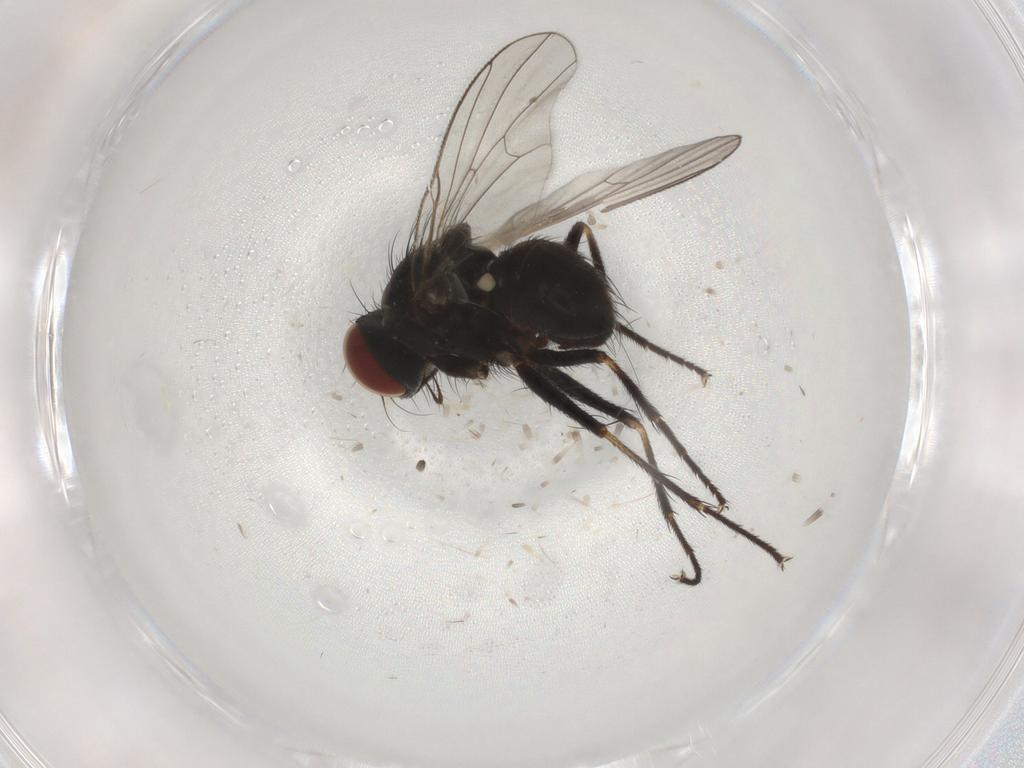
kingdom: Animalia
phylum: Arthropoda
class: Insecta
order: Diptera
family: Muscidae
